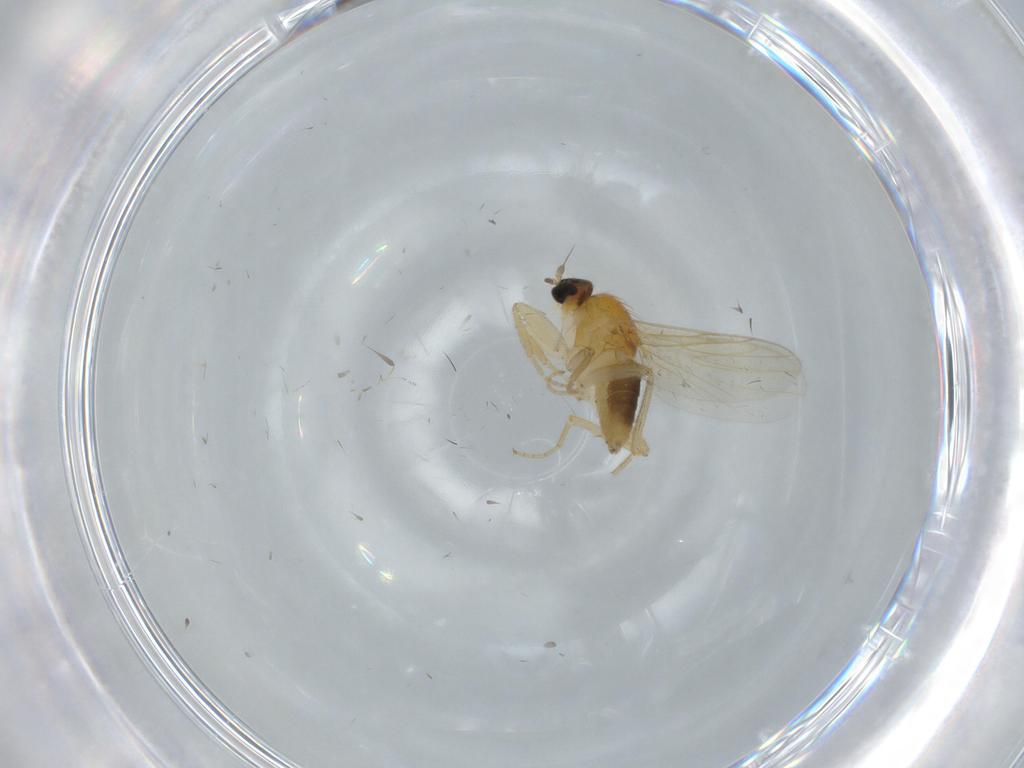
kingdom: Animalia
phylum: Arthropoda
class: Insecta
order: Diptera
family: Hybotidae
